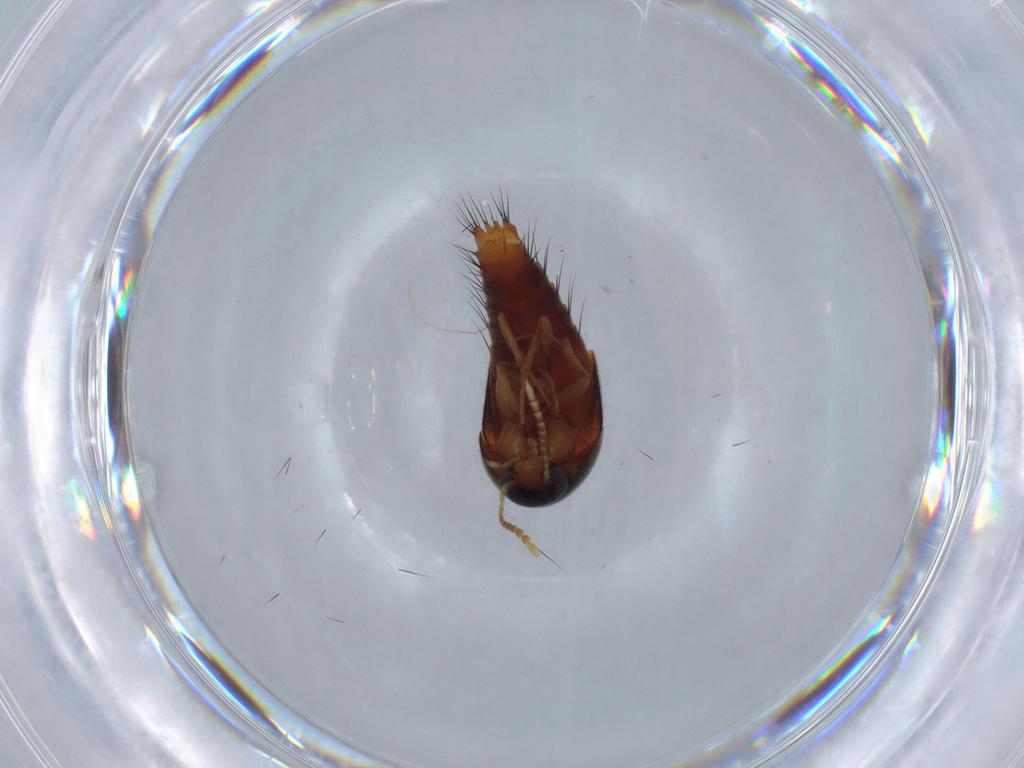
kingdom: Animalia
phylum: Arthropoda
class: Insecta
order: Coleoptera
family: Staphylinidae
